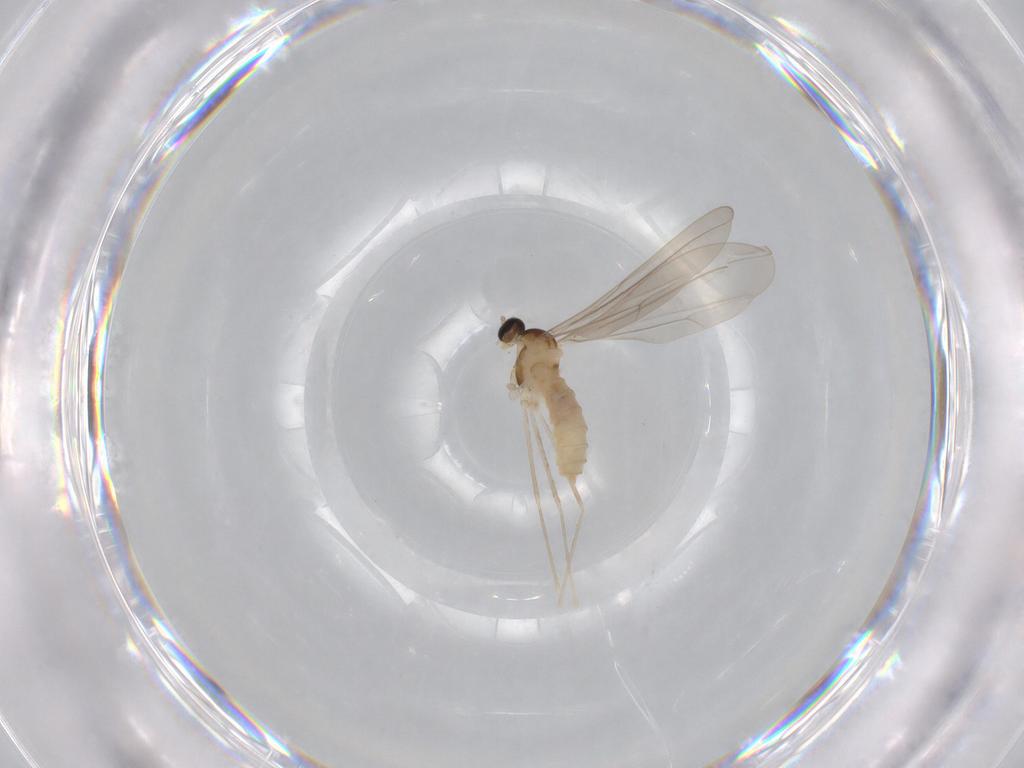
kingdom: Animalia
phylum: Arthropoda
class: Insecta
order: Diptera
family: Cecidomyiidae
